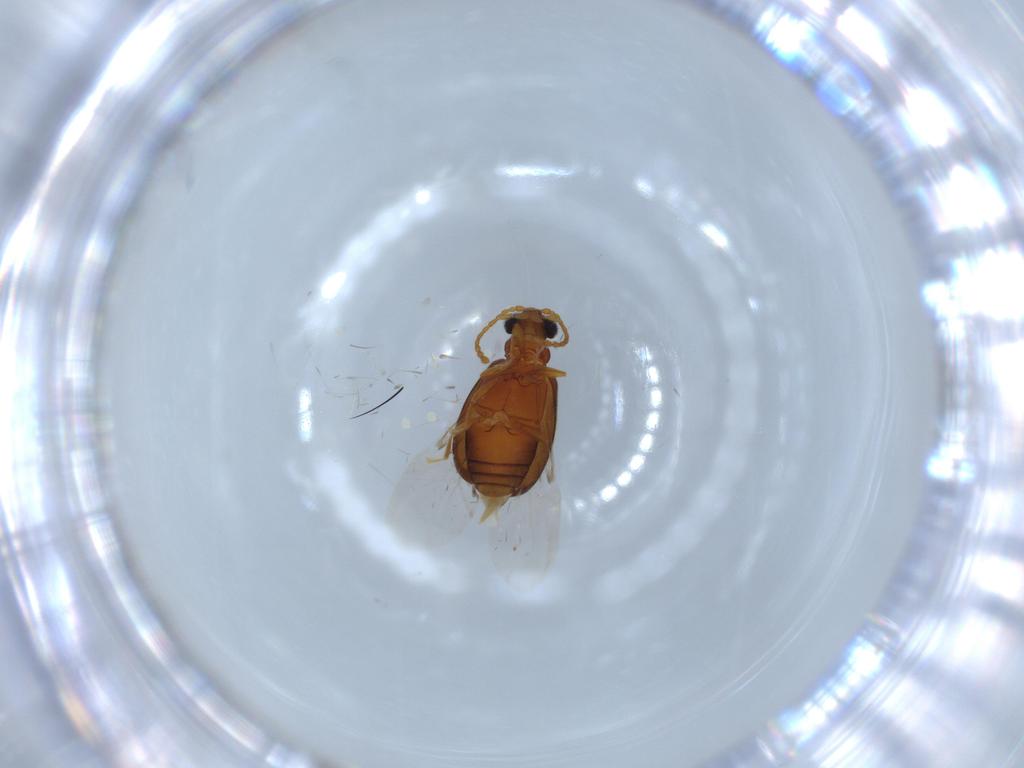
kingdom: Animalia
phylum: Arthropoda
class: Insecta
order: Coleoptera
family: Aderidae
